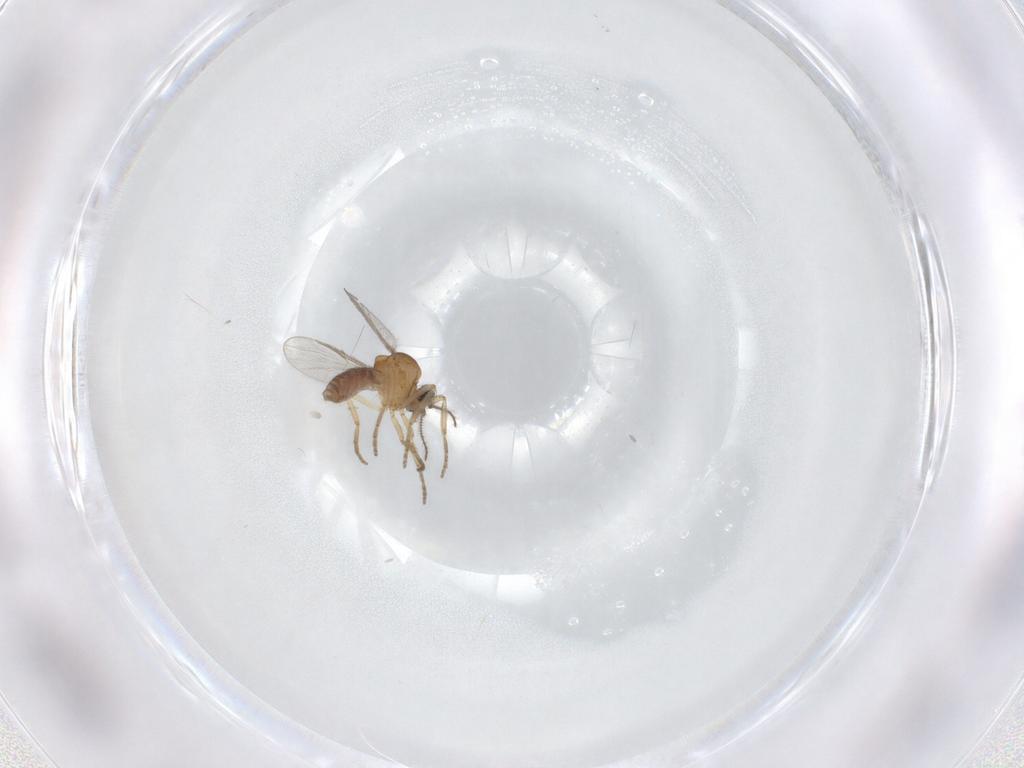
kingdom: Animalia
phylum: Arthropoda
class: Insecta
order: Diptera
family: Ceratopogonidae
